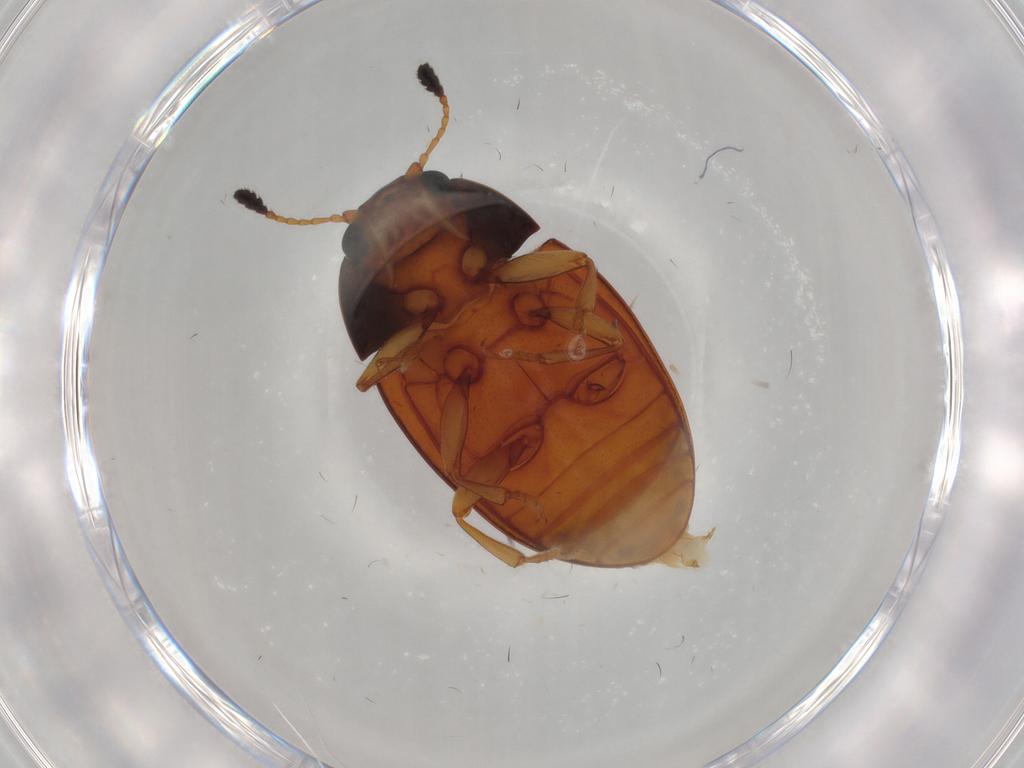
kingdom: Animalia
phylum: Arthropoda
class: Insecta
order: Coleoptera
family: Erotylidae
